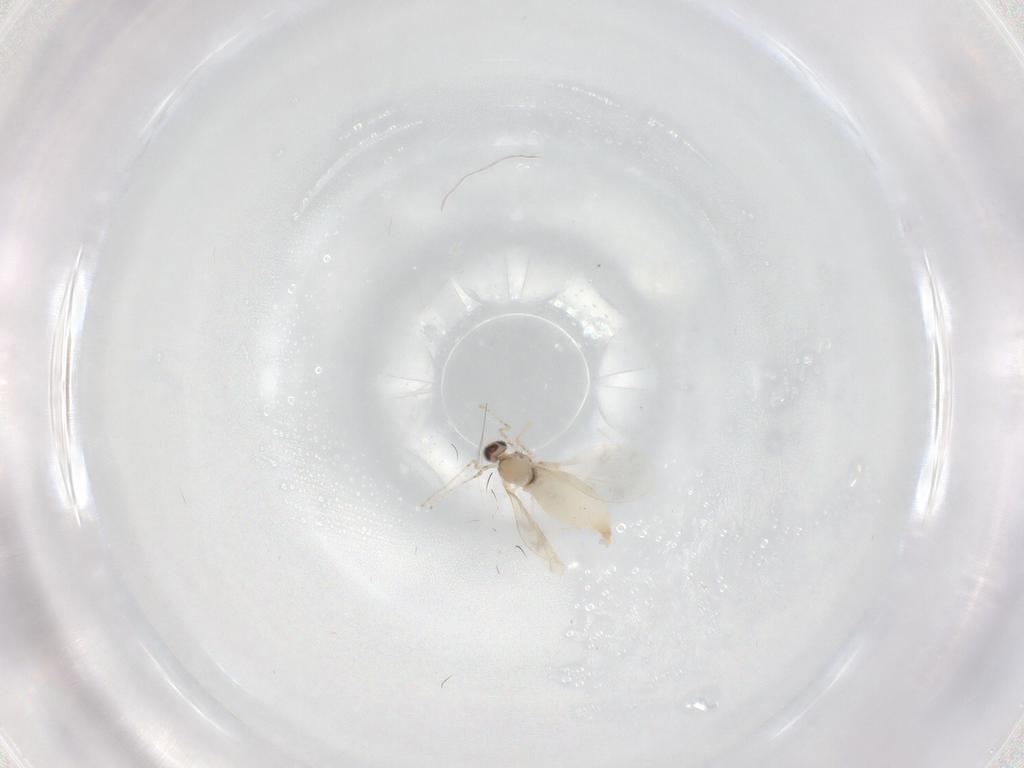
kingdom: Animalia
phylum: Arthropoda
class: Insecta
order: Diptera
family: Cecidomyiidae
